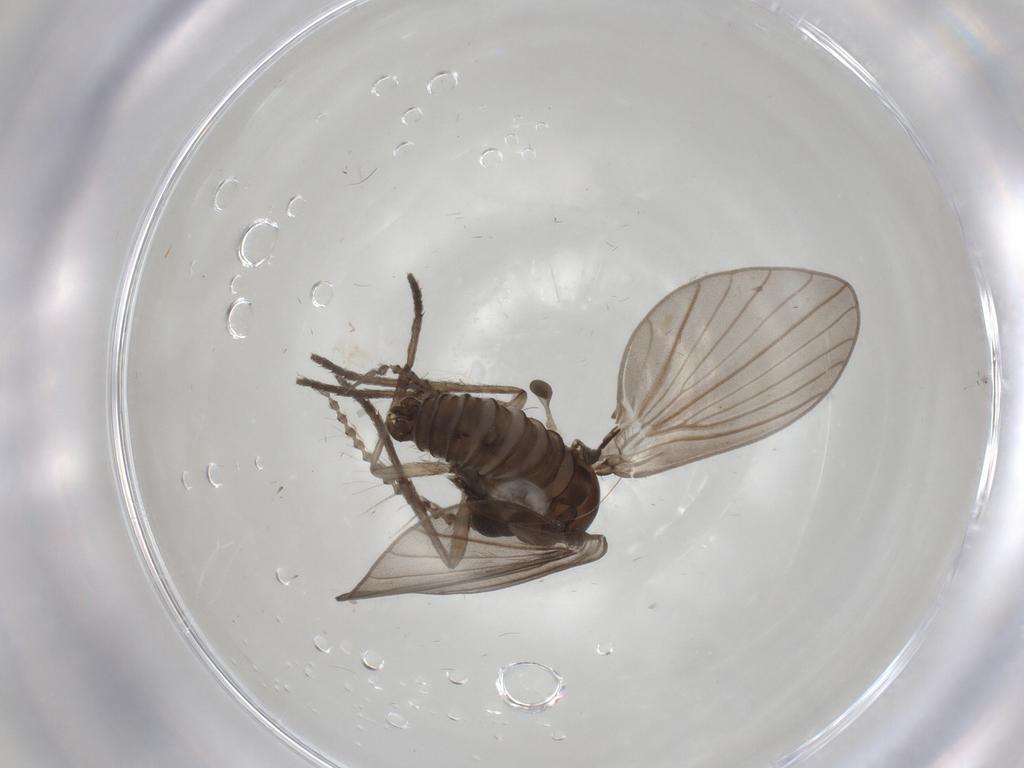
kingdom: Animalia
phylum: Arthropoda
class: Insecta
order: Diptera
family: Psychodidae
